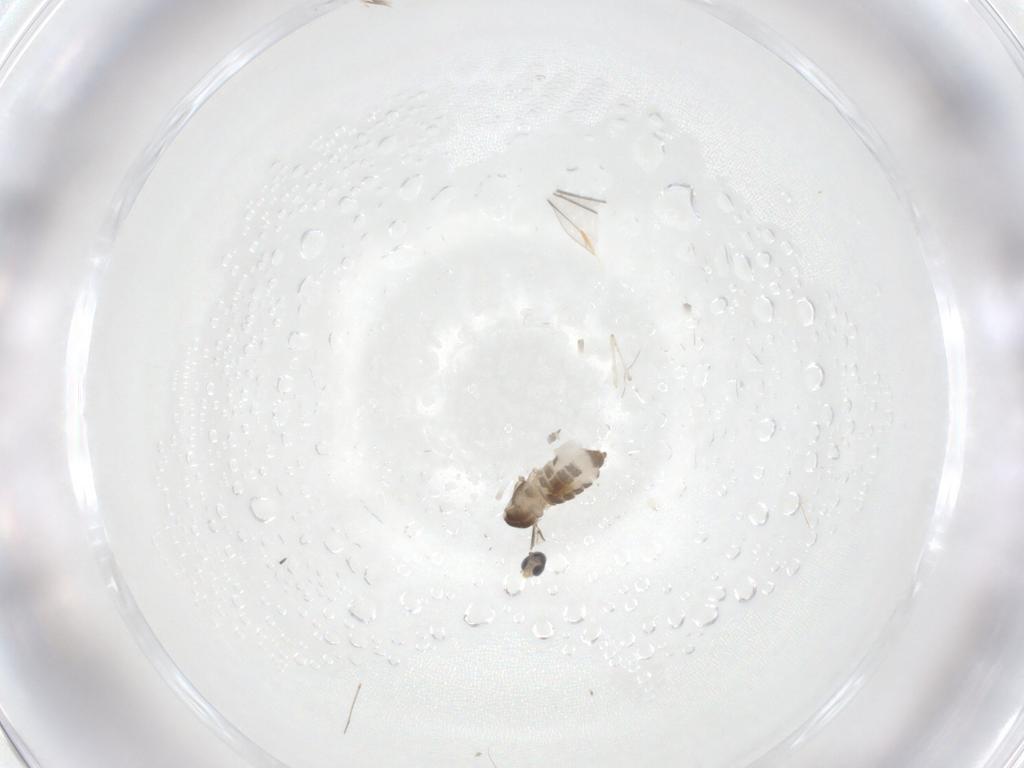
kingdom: Animalia
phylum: Arthropoda
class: Insecta
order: Diptera
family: Cecidomyiidae
